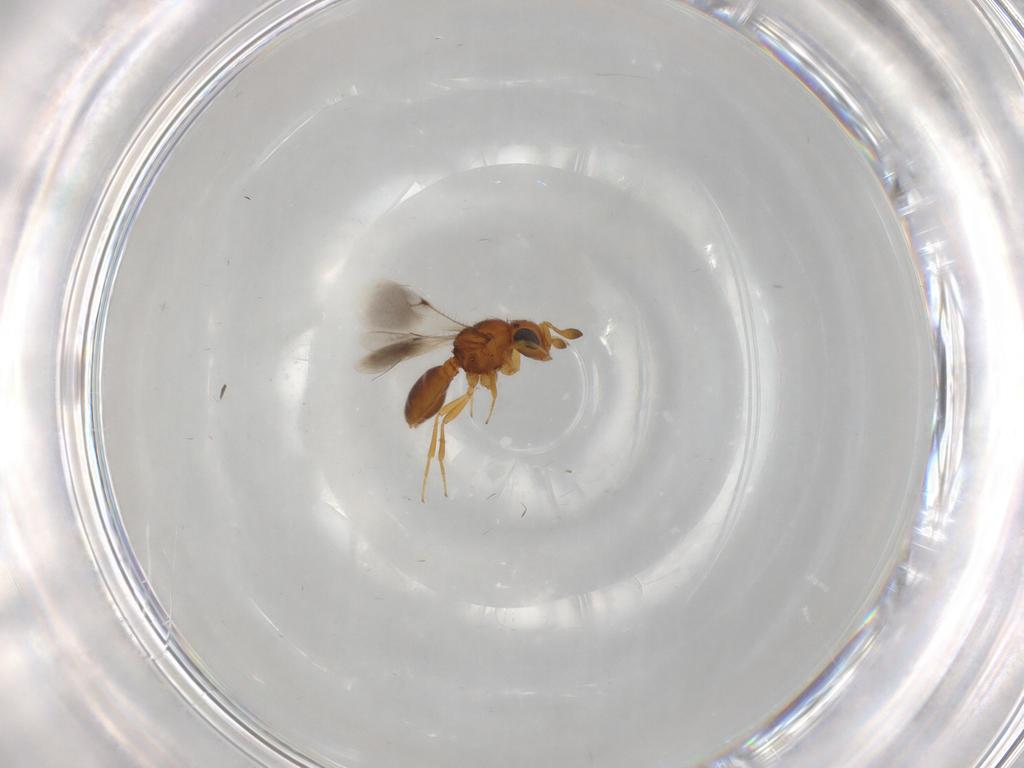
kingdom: Animalia
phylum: Arthropoda
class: Insecta
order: Hymenoptera
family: Scelionidae
